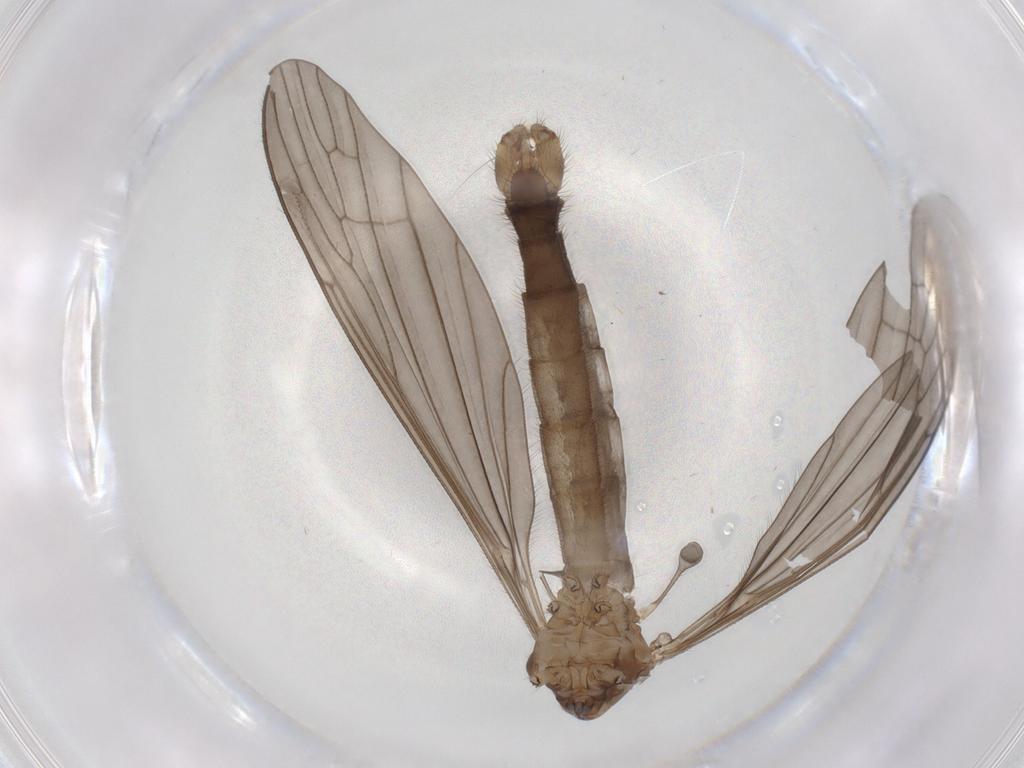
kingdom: Animalia
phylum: Arthropoda
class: Insecta
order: Diptera
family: Limoniidae
